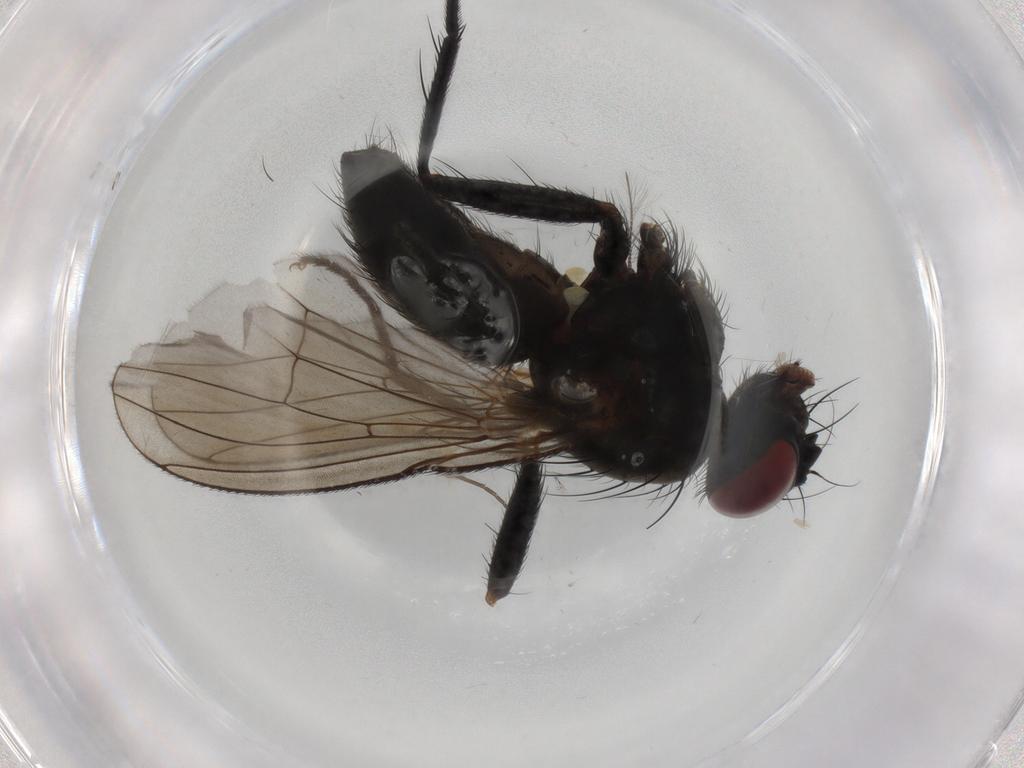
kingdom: Animalia
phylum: Arthropoda
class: Insecta
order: Diptera
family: Muscidae
